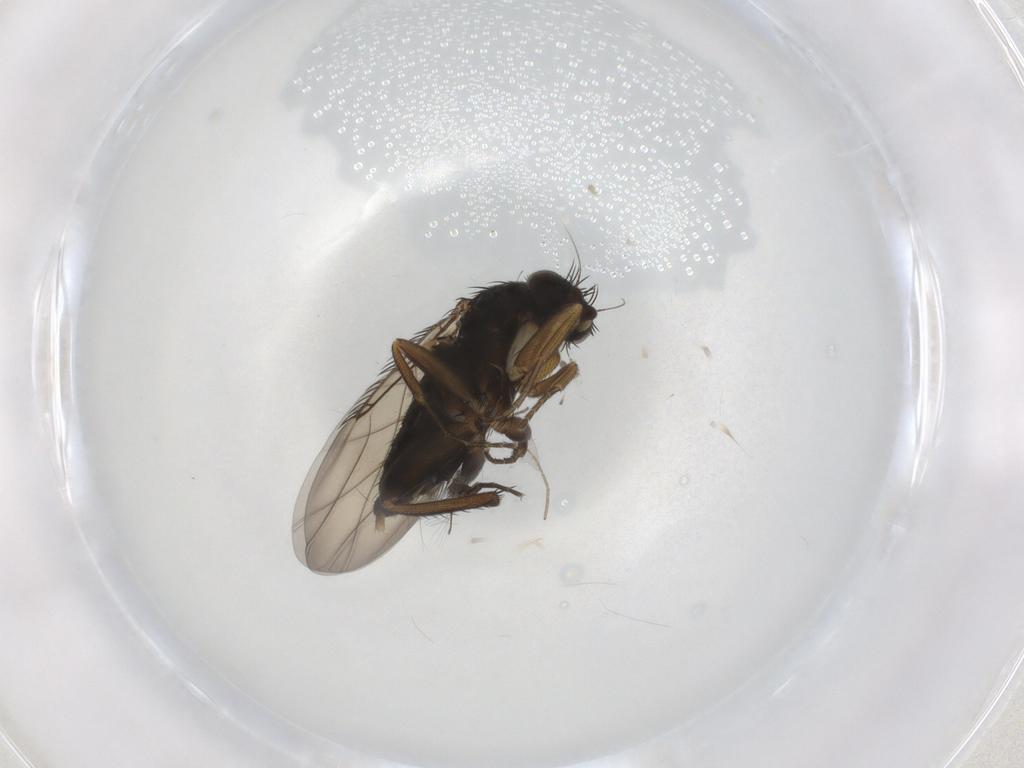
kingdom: Animalia
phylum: Arthropoda
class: Insecta
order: Diptera
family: Phoridae
